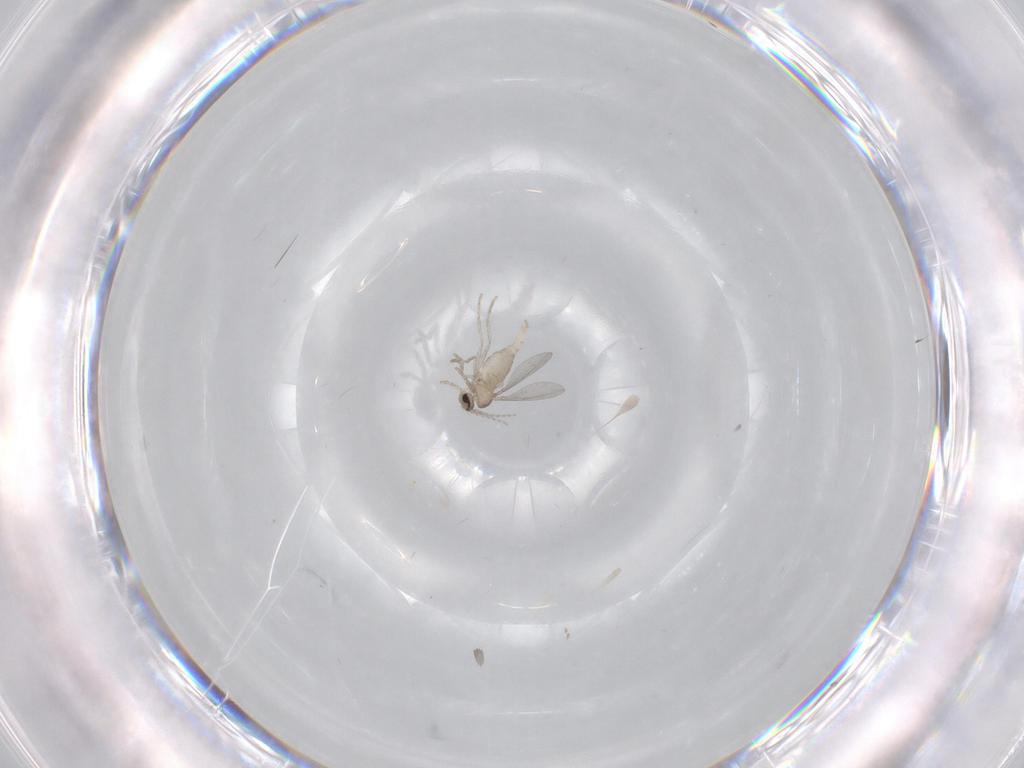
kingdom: Animalia
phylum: Arthropoda
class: Insecta
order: Diptera
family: Cecidomyiidae
